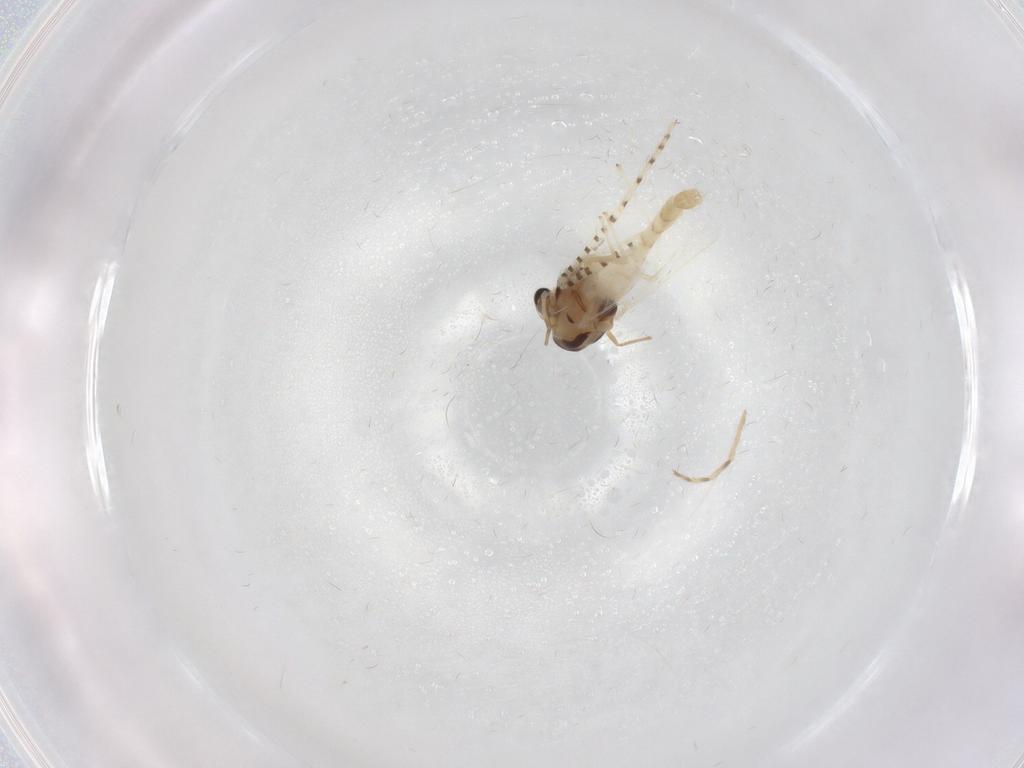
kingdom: Animalia
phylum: Arthropoda
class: Insecta
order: Diptera
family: Chironomidae
